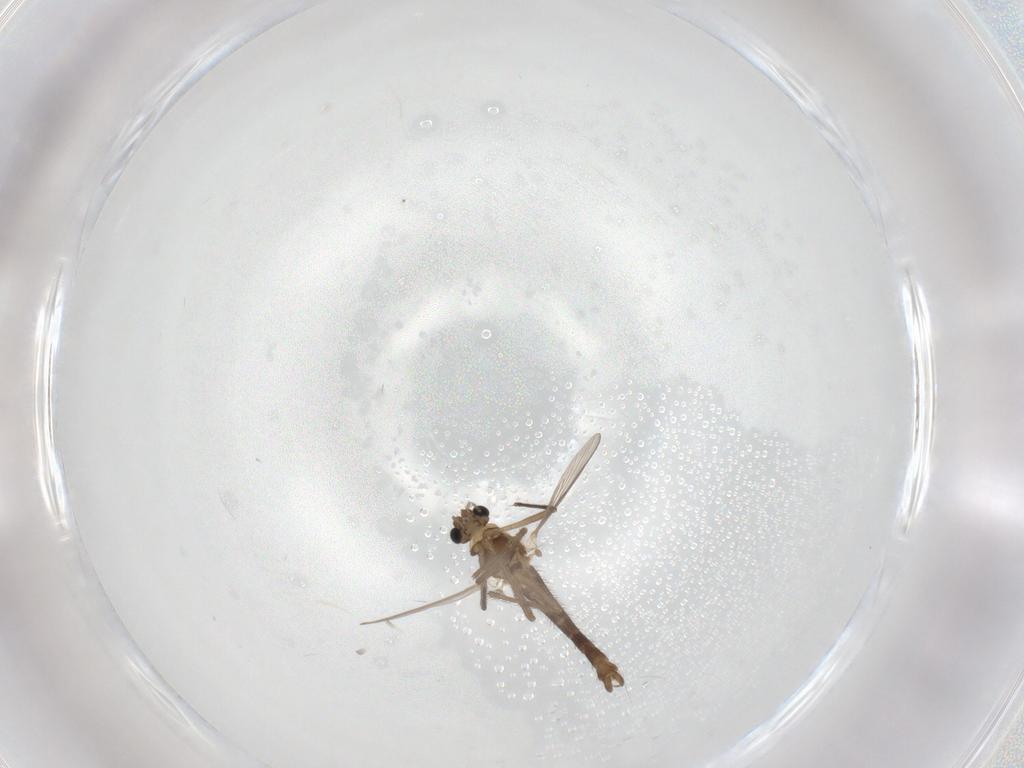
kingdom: Animalia
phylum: Arthropoda
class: Insecta
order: Diptera
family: Chironomidae
